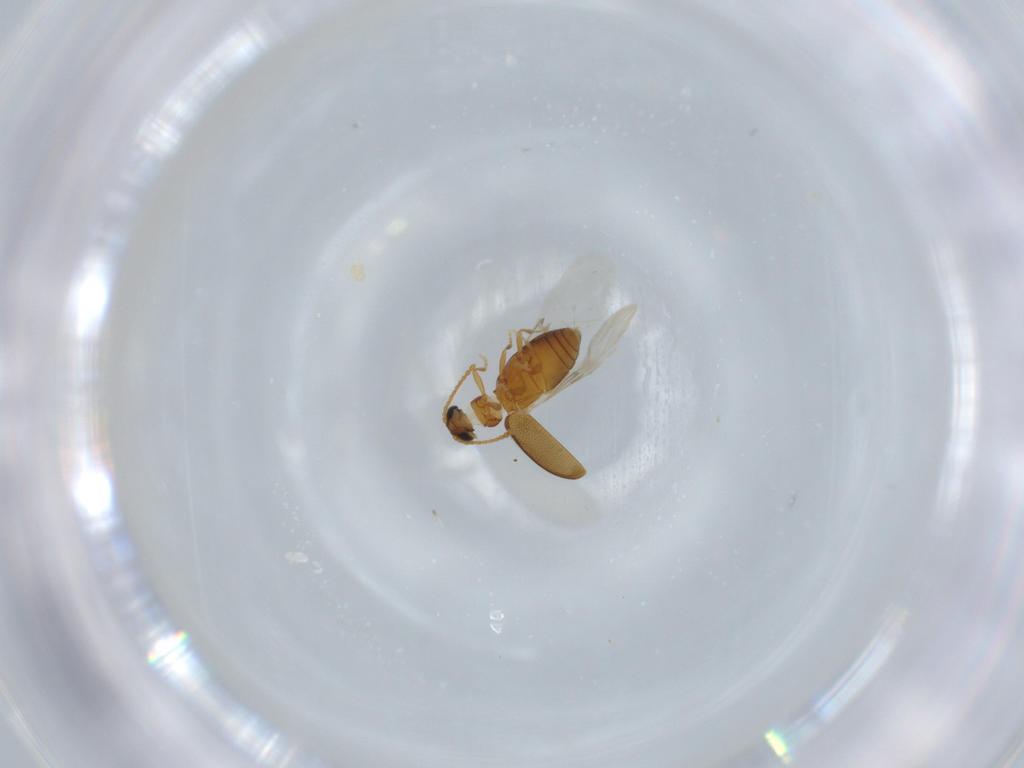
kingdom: Animalia
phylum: Arthropoda
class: Insecta
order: Coleoptera
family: Aderidae
